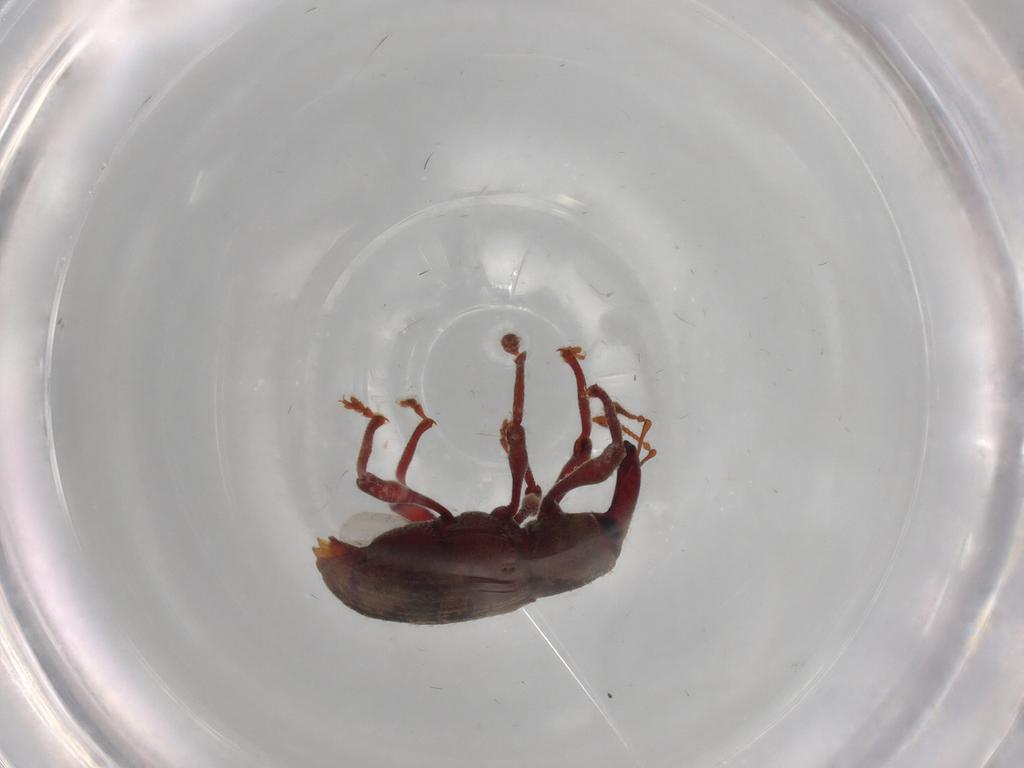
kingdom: Animalia
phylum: Arthropoda
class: Insecta
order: Coleoptera
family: Curculionidae
